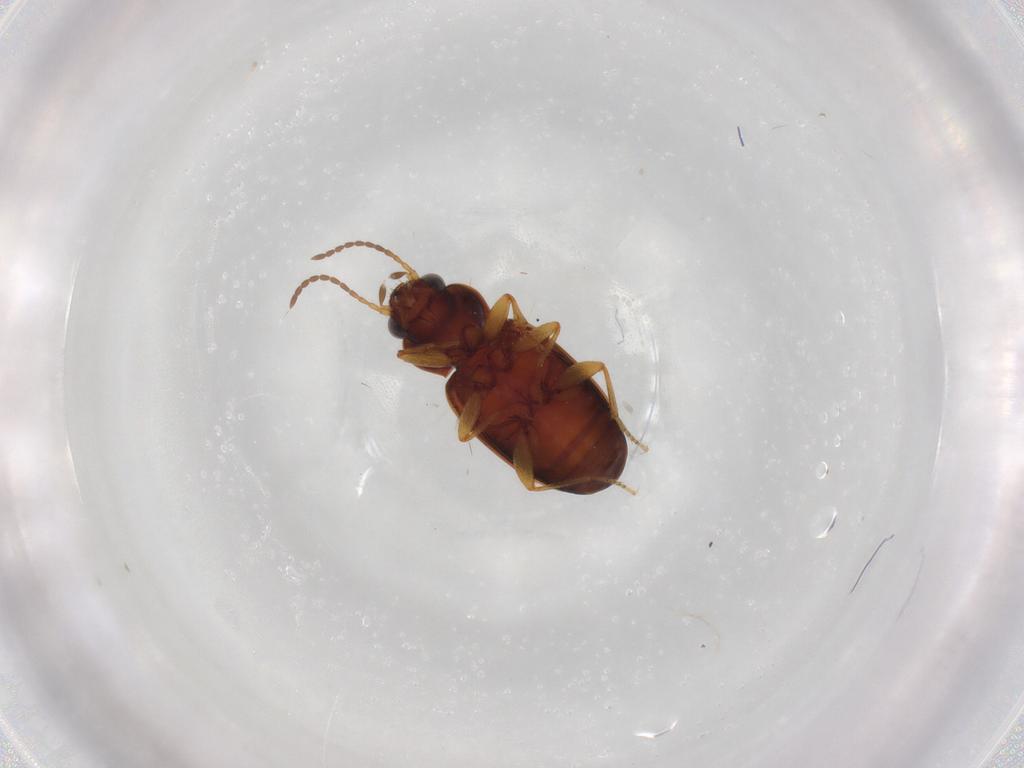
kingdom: Animalia
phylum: Arthropoda
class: Insecta
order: Coleoptera
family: Carabidae
